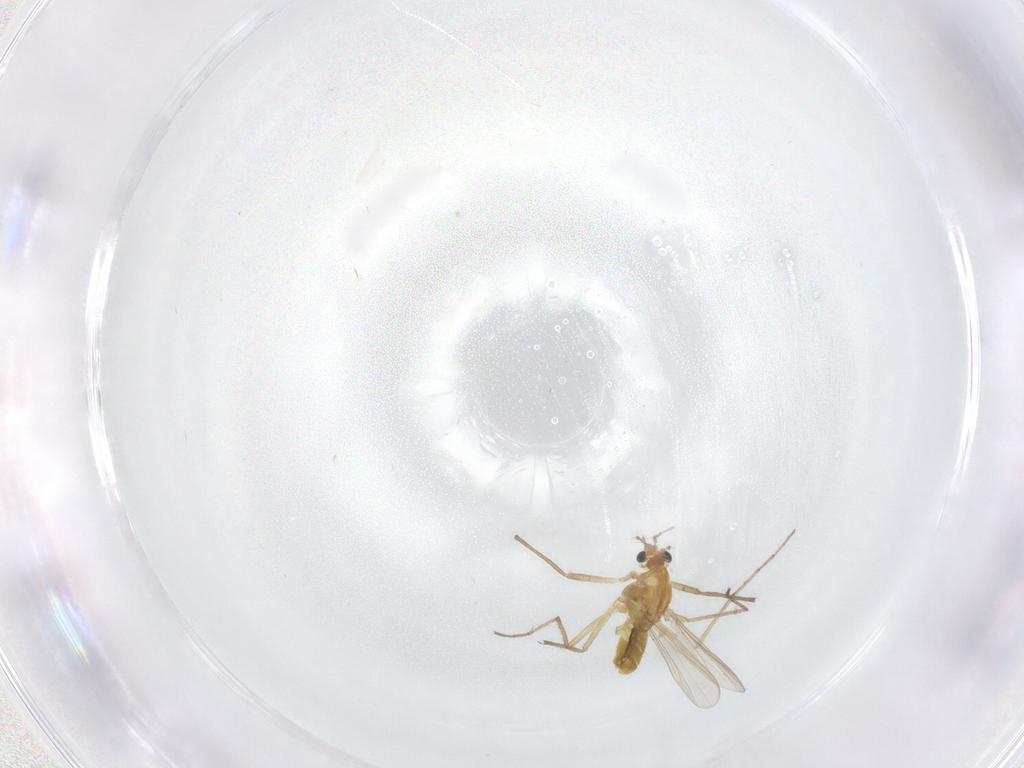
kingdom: Animalia
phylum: Arthropoda
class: Insecta
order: Diptera
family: Chironomidae
